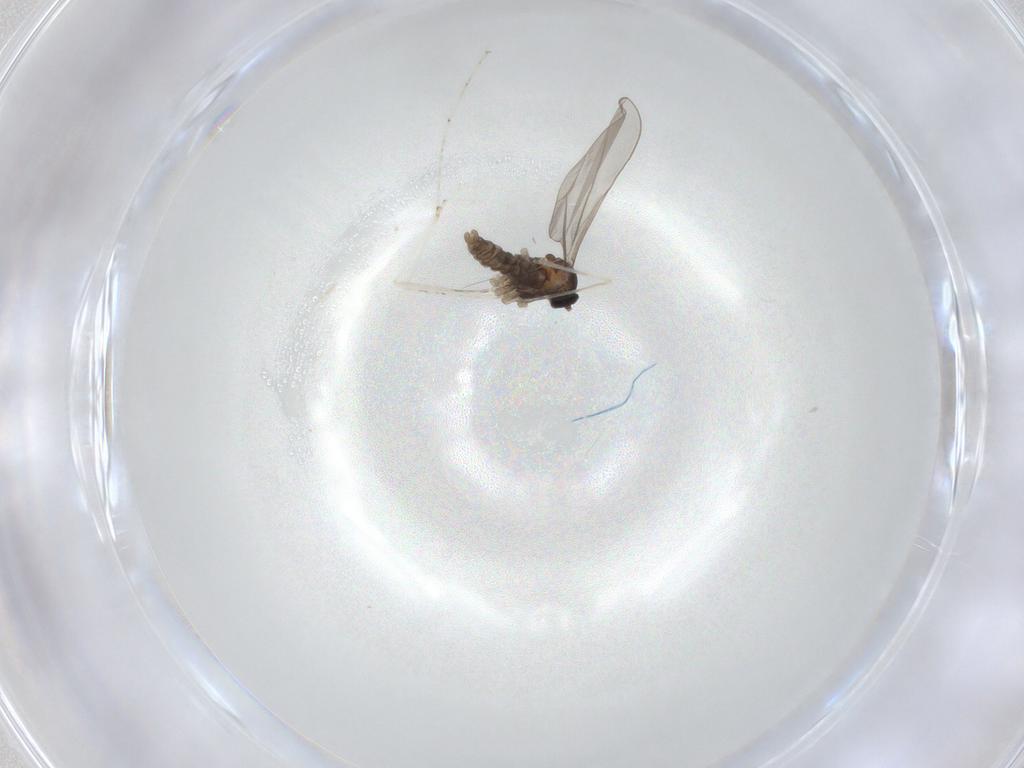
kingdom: Animalia
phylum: Arthropoda
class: Insecta
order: Diptera
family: Cecidomyiidae
